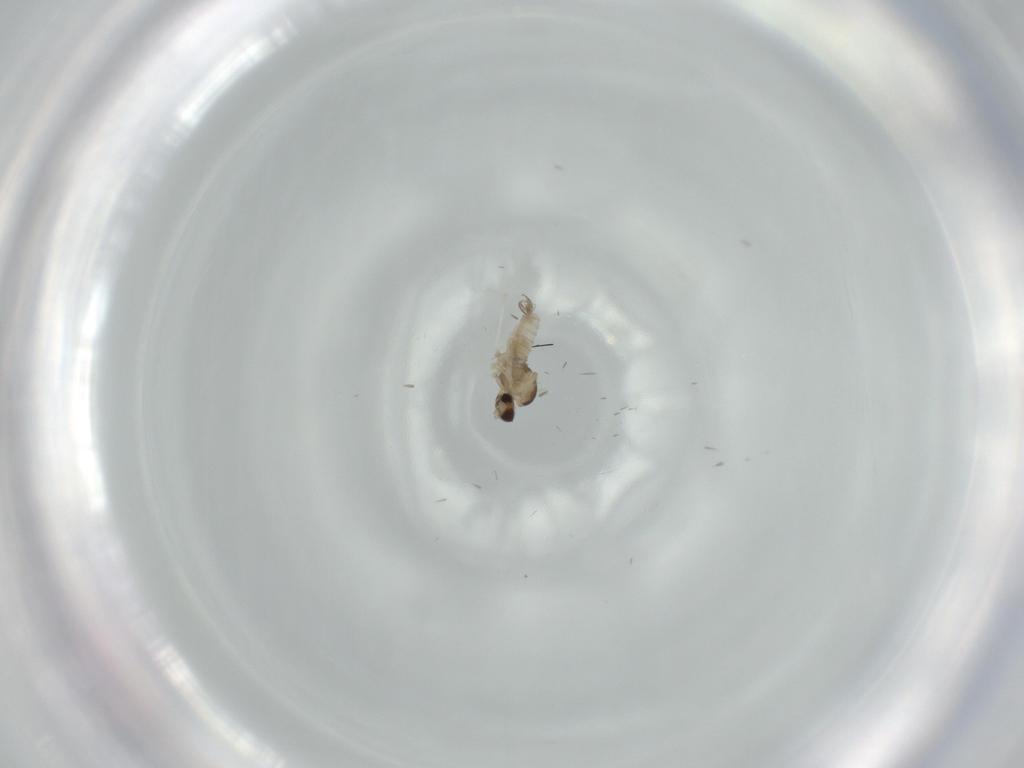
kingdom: Animalia
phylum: Arthropoda
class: Insecta
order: Diptera
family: Cecidomyiidae
